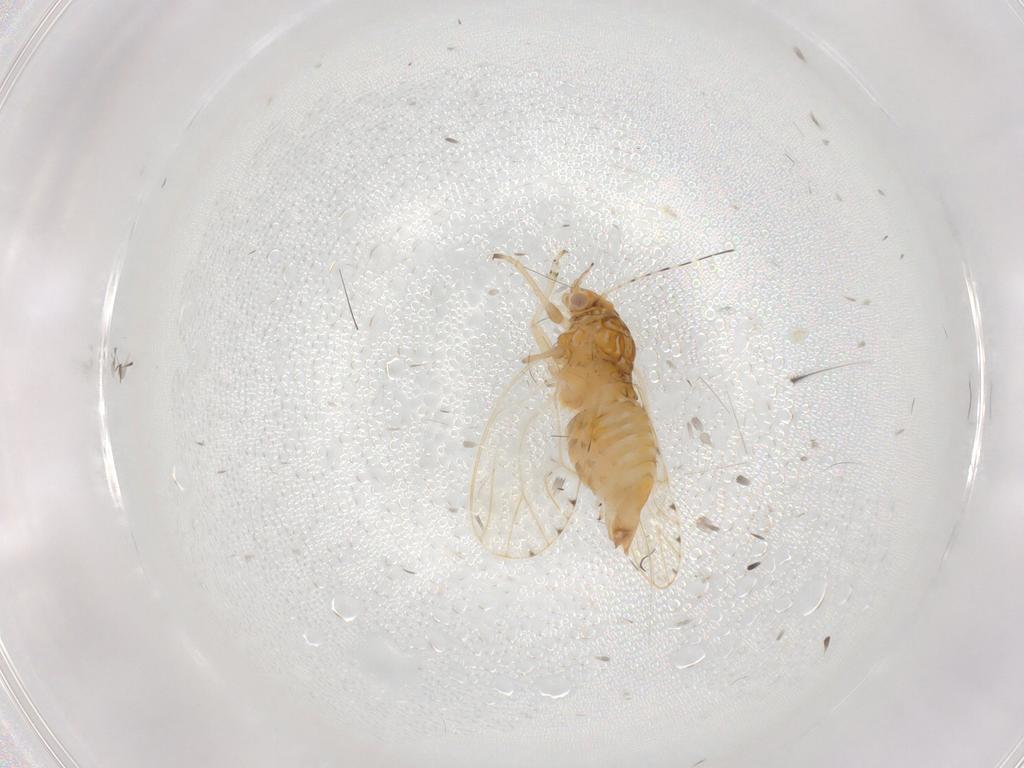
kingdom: Animalia
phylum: Arthropoda
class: Insecta
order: Hemiptera
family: Psylloidea_incertae_sedis
